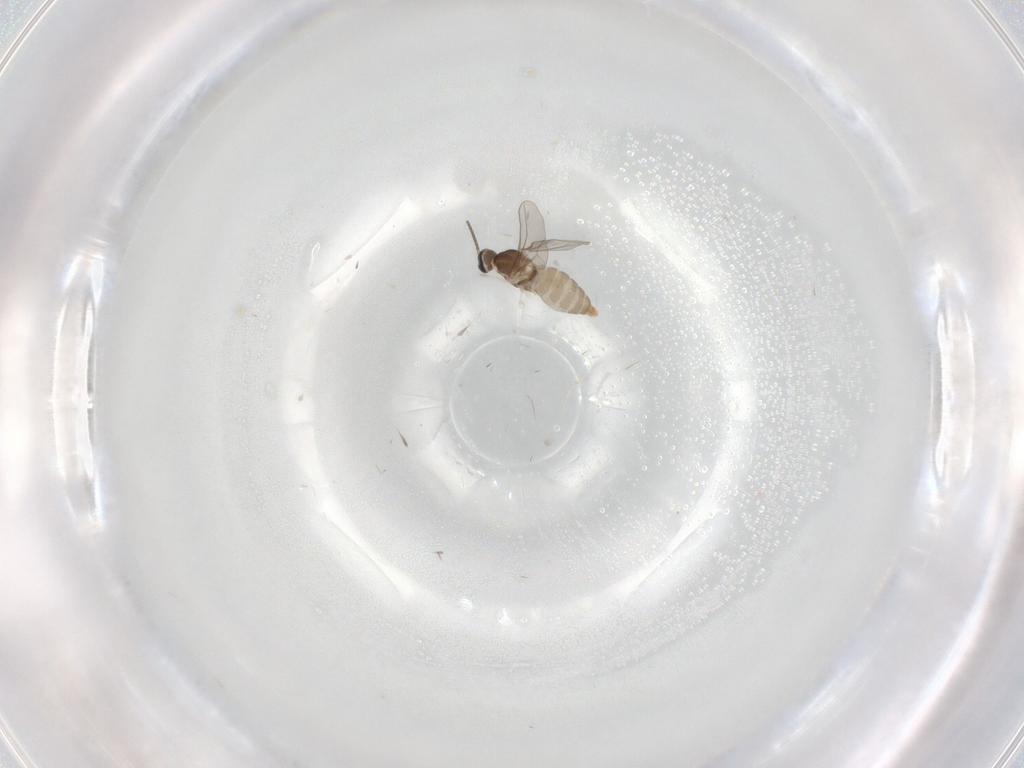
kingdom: Animalia
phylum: Arthropoda
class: Insecta
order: Diptera
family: Cecidomyiidae
